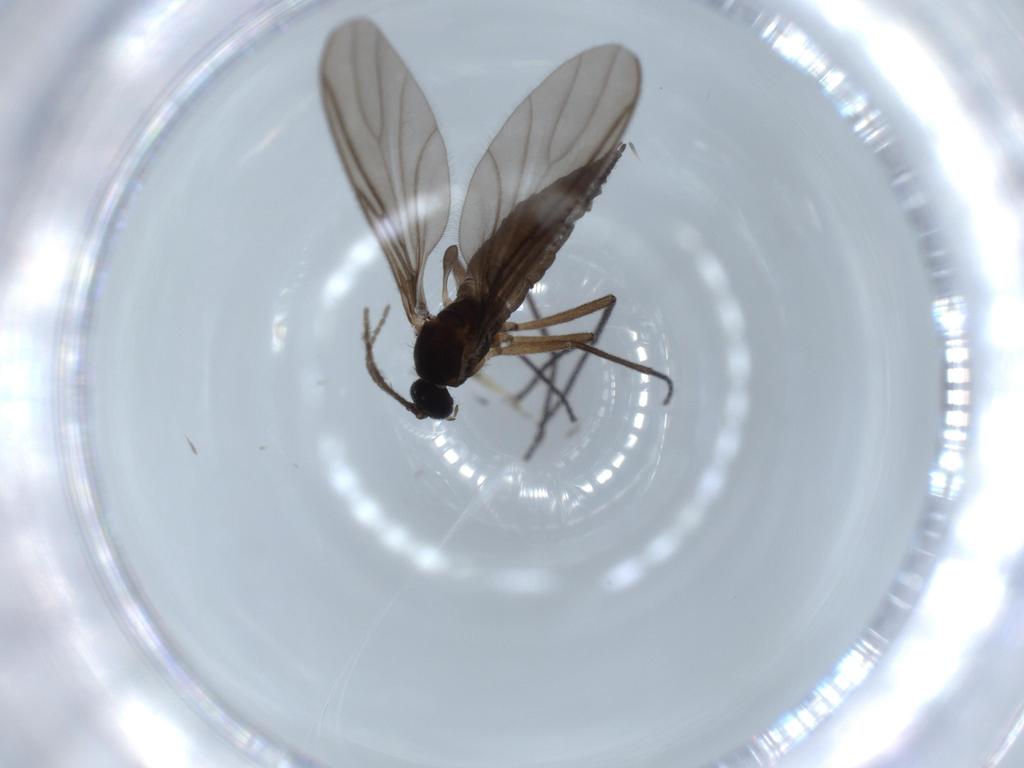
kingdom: Animalia
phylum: Arthropoda
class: Insecta
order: Diptera
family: Sciaridae
